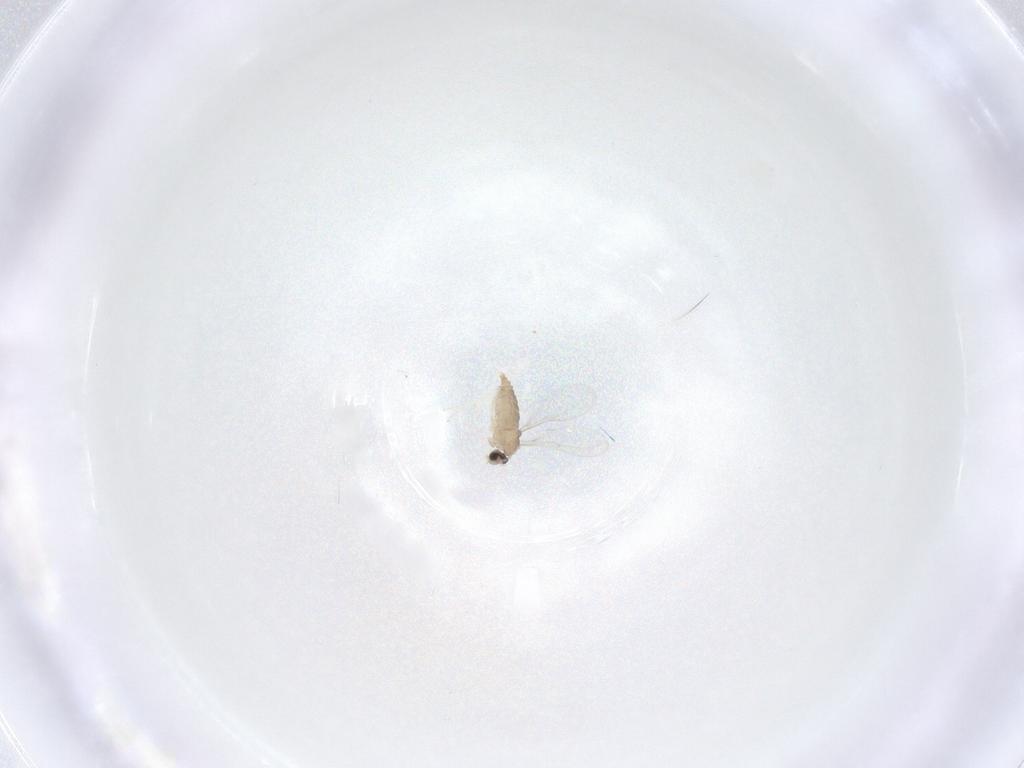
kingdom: Animalia
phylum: Arthropoda
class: Insecta
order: Diptera
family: Cecidomyiidae
